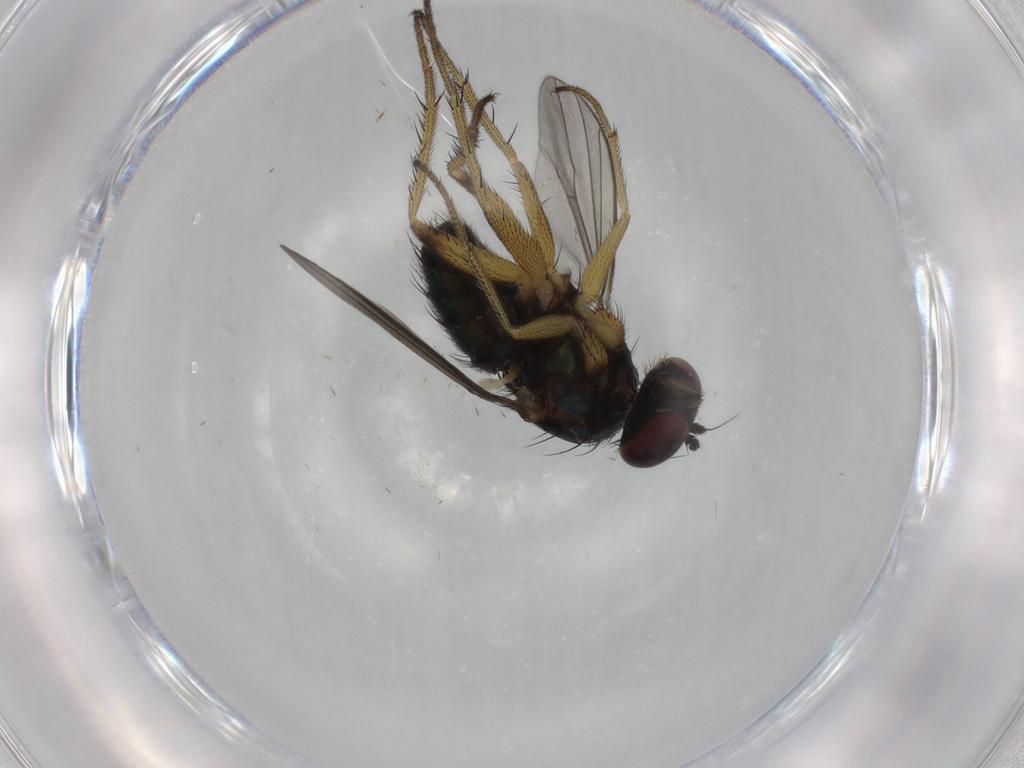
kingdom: Animalia
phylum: Arthropoda
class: Insecta
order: Diptera
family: Dolichopodidae
